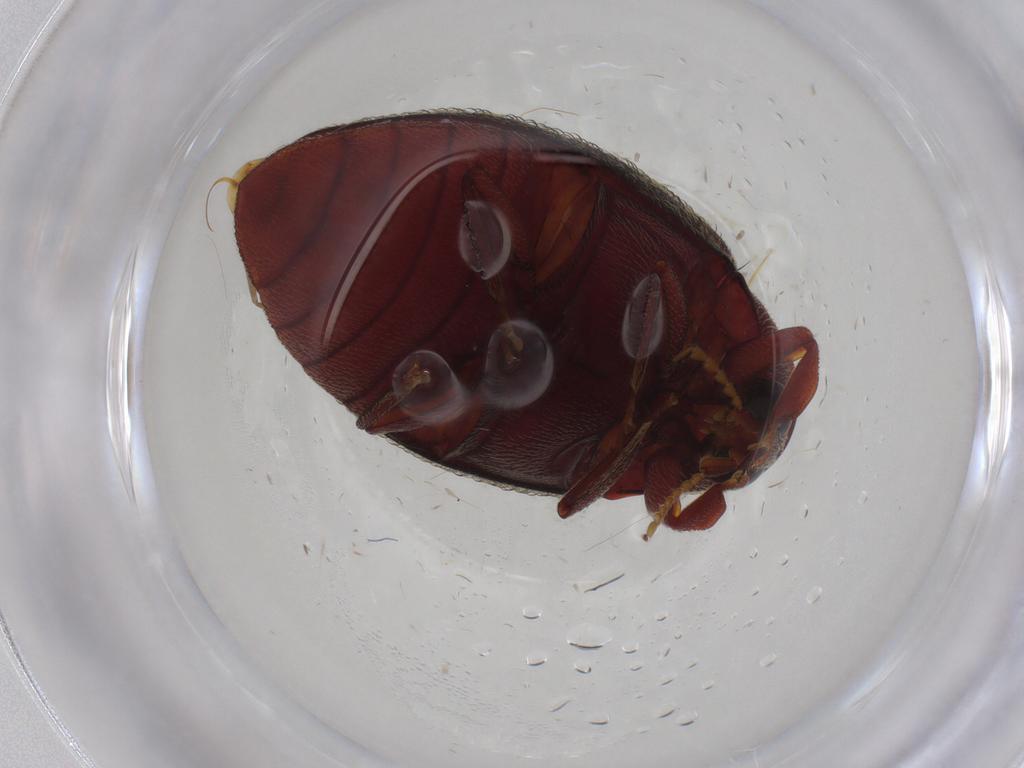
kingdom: Animalia
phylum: Arthropoda
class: Insecta
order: Coleoptera
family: Chelonariidae
